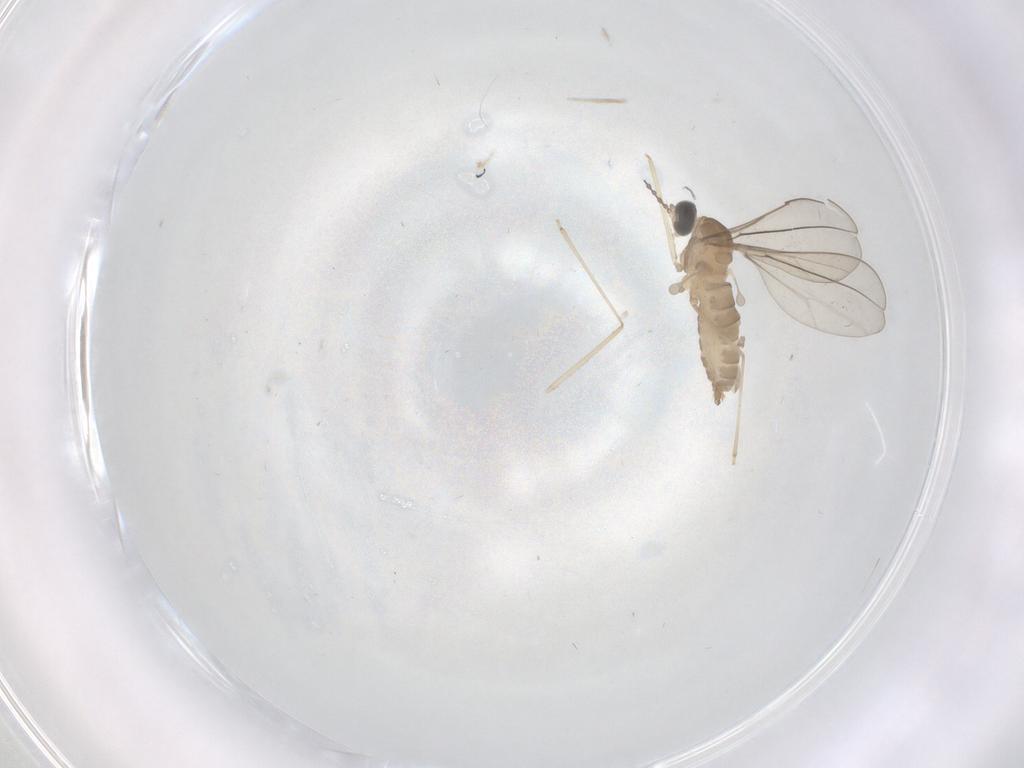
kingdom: Animalia
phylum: Arthropoda
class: Insecta
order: Diptera
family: Cecidomyiidae
